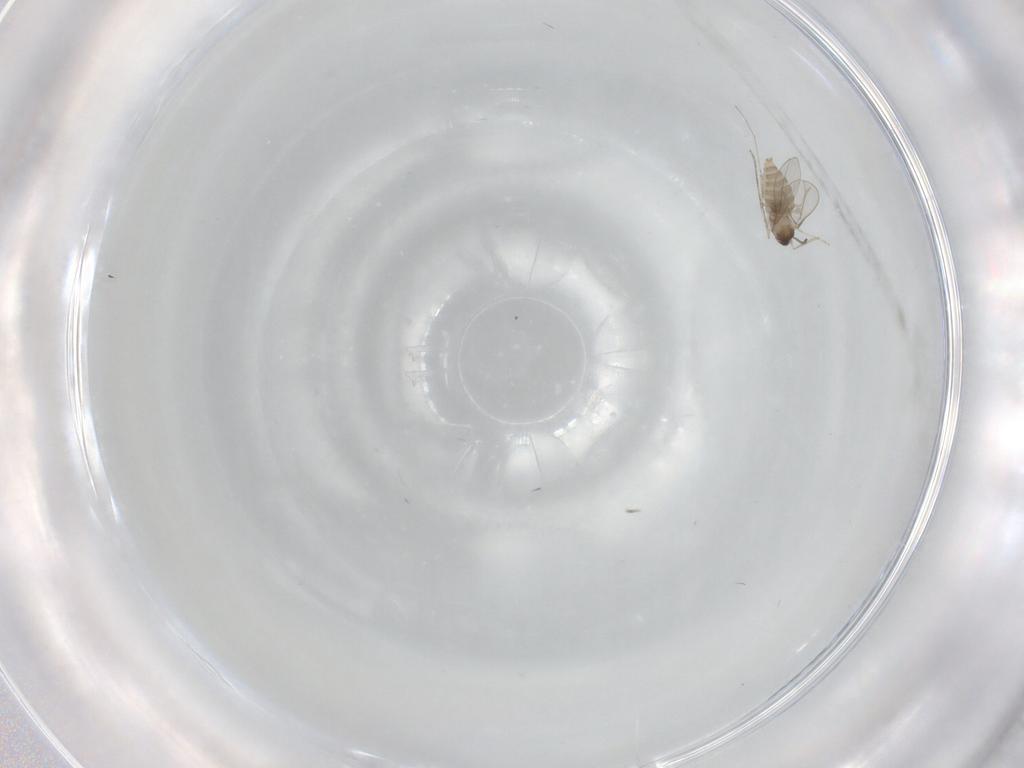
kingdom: Animalia
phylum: Arthropoda
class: Insecta
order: Diptera
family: Cecidomyiidae
